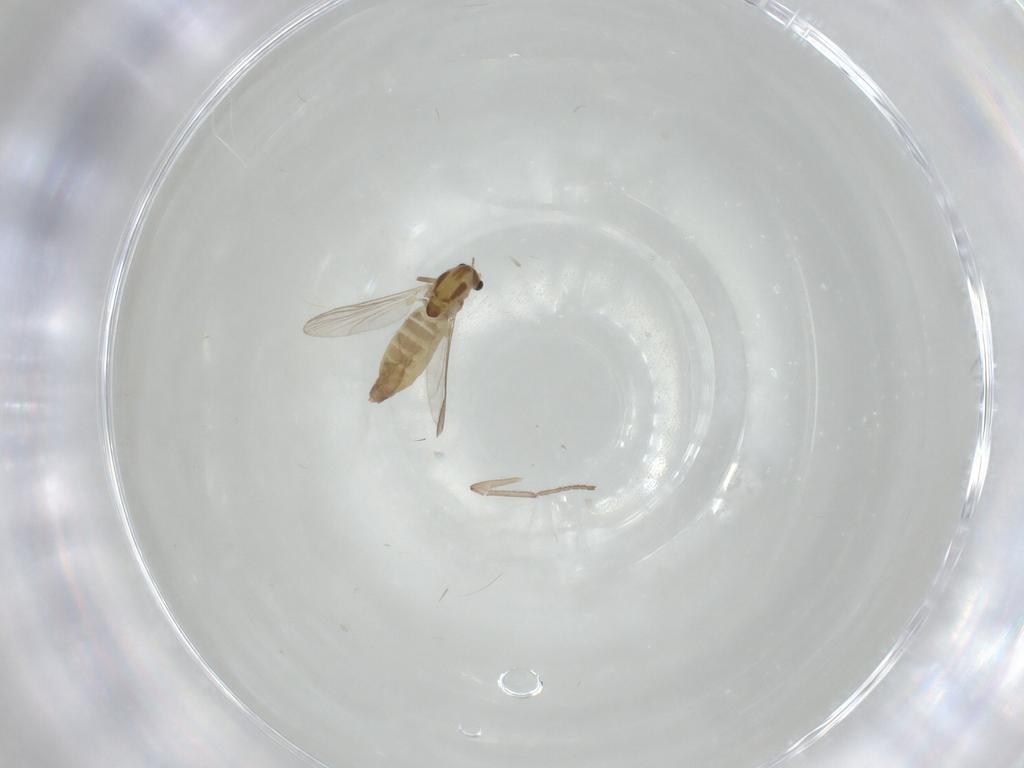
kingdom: Animalia
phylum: Arthropoda
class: Insecta
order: Diptera
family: Chironomidae
